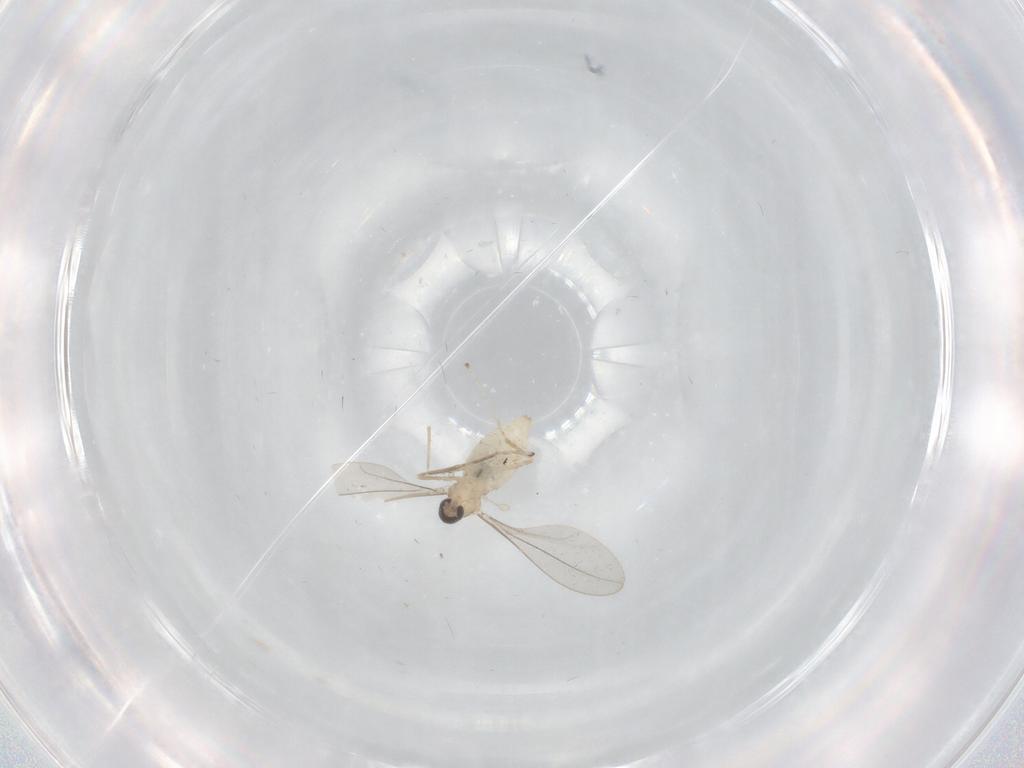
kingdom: Animalia
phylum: Arthropoda
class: Insecta
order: Diptera
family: Cecidomyiidae
